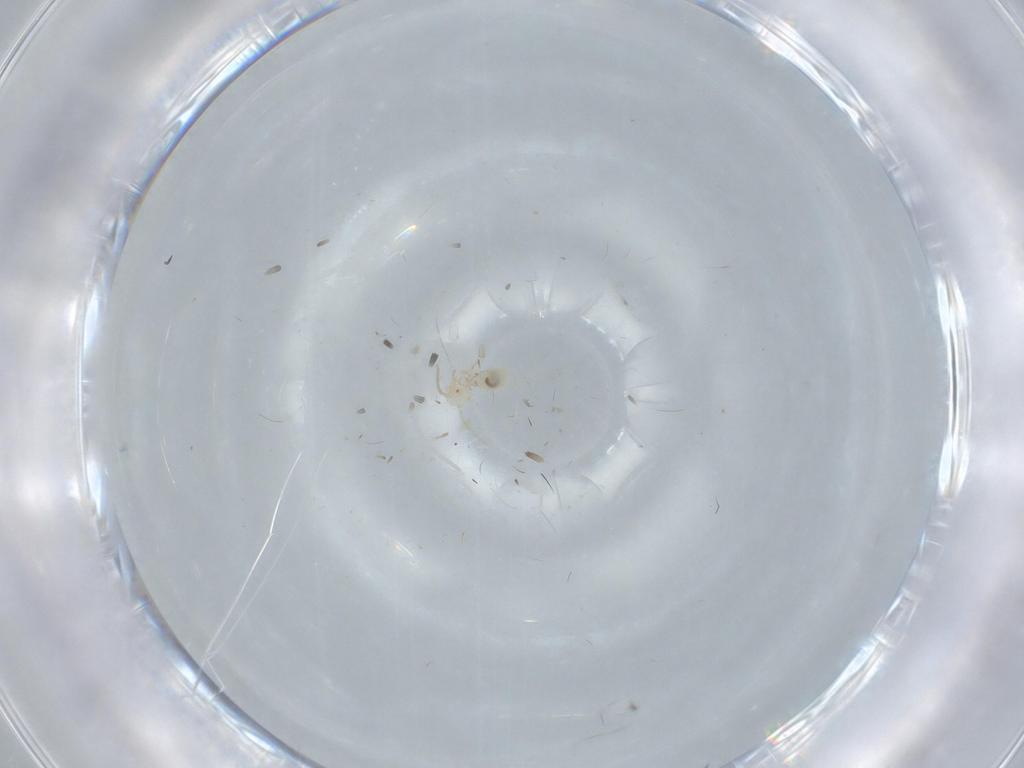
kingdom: Animalia
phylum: Arthropoda
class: Insecta
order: Psocodea
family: Caeciliusidae
